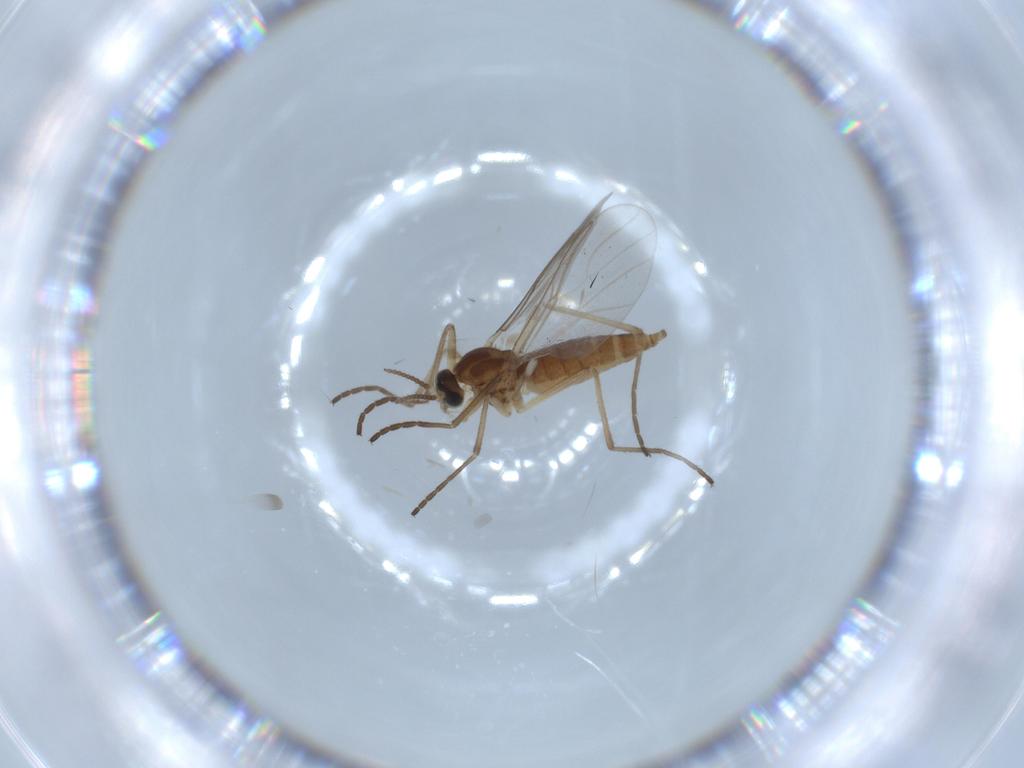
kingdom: Animalia
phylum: Arthropoda
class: Insecta
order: Diptera
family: Cecidomyiidae
